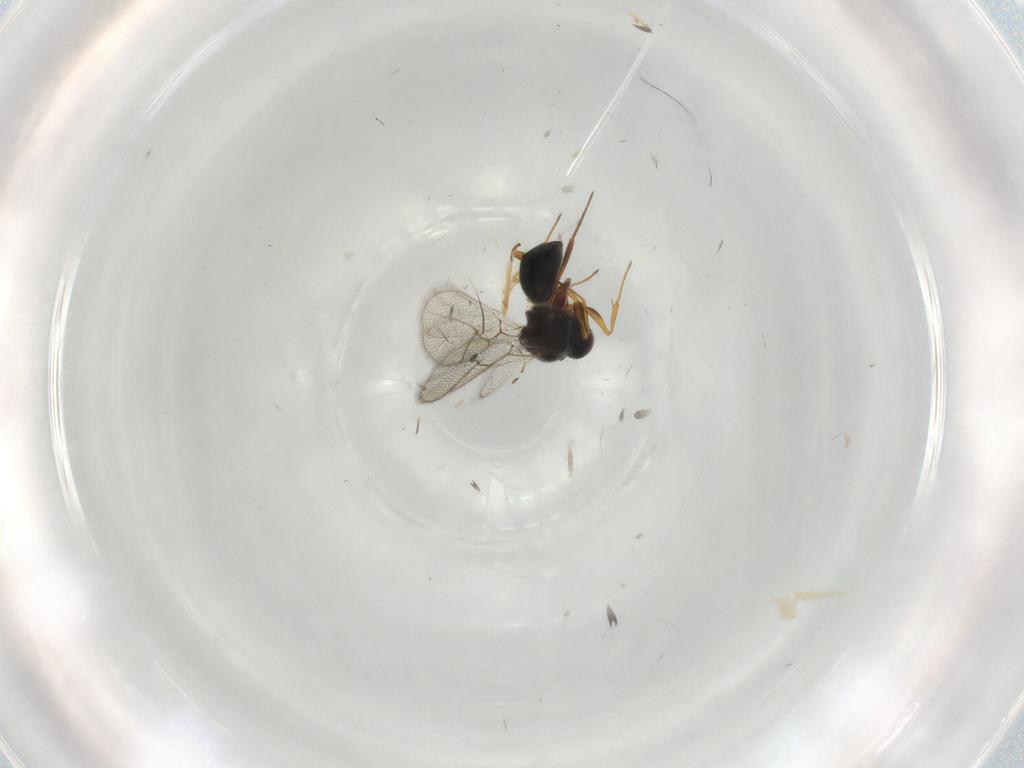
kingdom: Animalia
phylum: Arthropoda
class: Insecta
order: Hymenoptera
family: Figitidae
